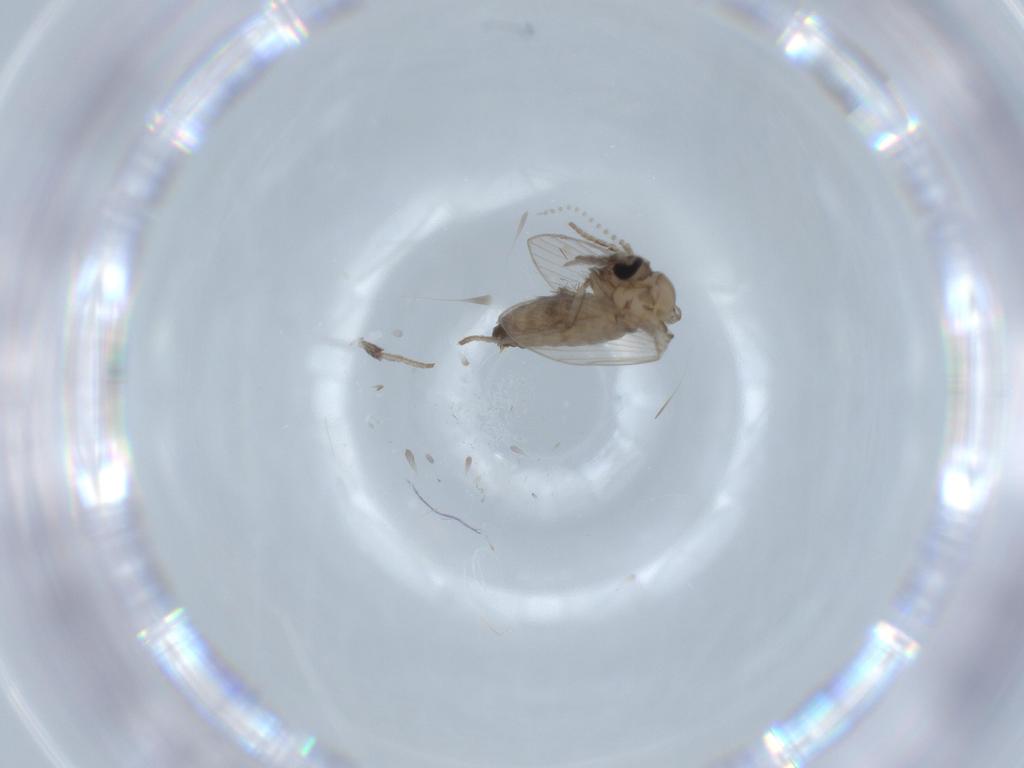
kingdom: Animalia
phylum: Arthropoda
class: Insecta
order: Diptera
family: Psychodidae
